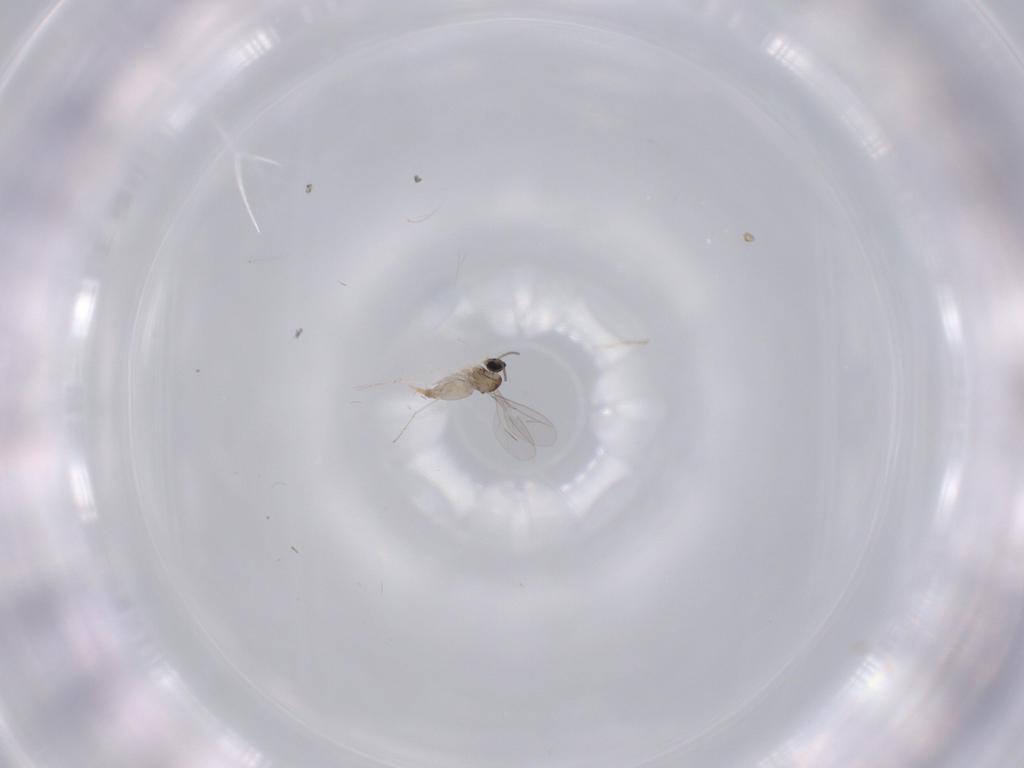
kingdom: Animalia
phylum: Arthropoda
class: Insecta
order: Diptera
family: Cecidomyiidae
